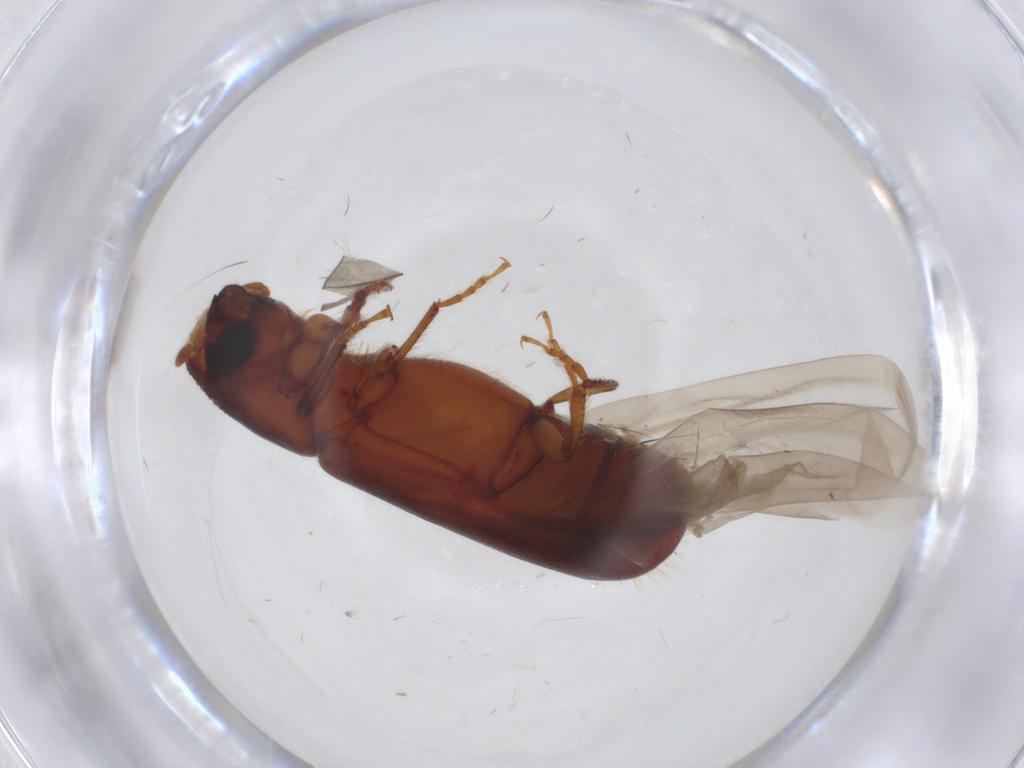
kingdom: Animalia
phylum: Arthropoda
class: Insecta
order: Coleoptera
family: Curculionidae
